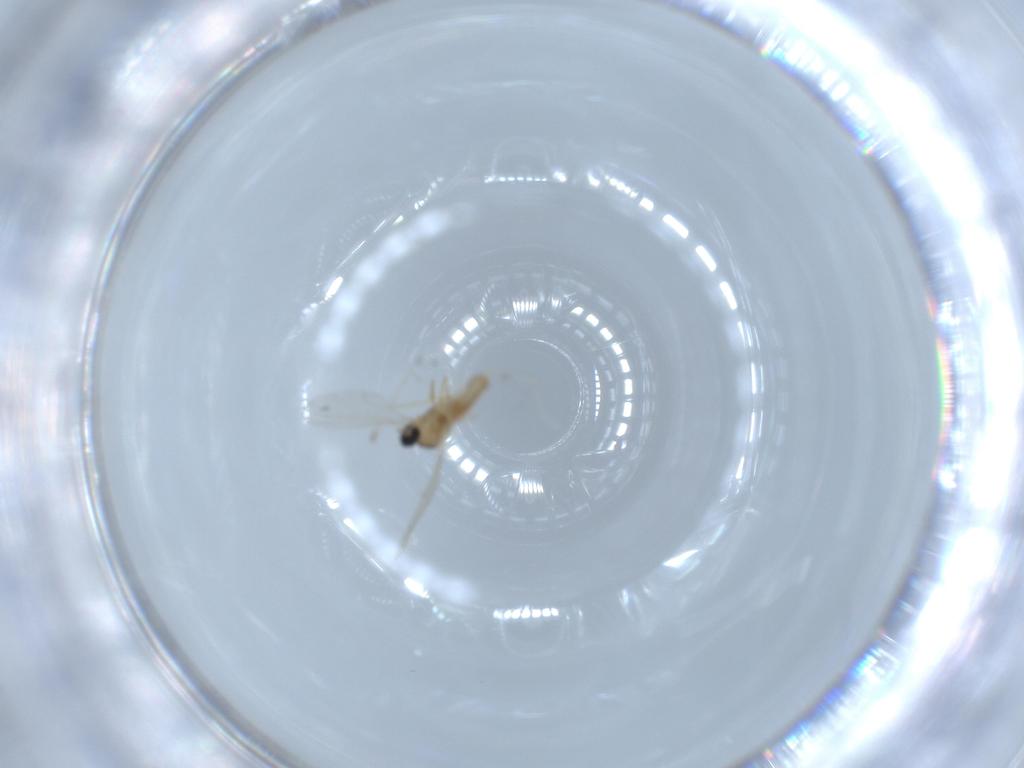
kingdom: Animalia
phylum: Arthropoda
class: Insecta
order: Diptera
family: Cecidomyiidae
